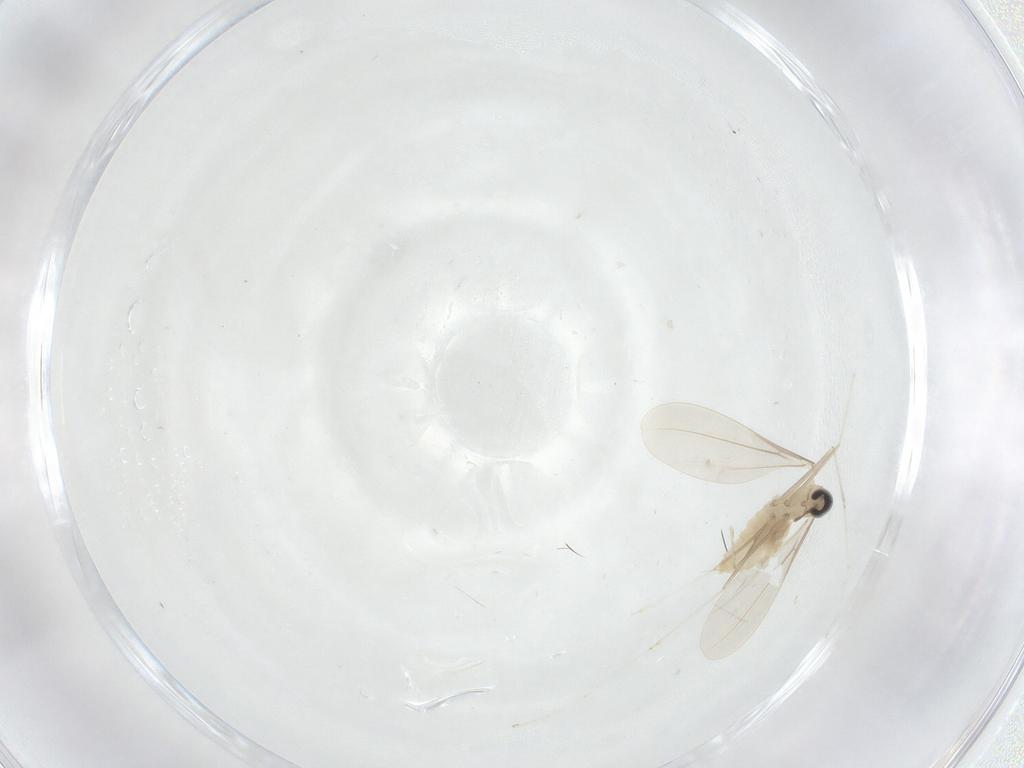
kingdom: Animalia
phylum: Arthropoda
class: Insecta
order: Diptera
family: Cecidomyiidae
